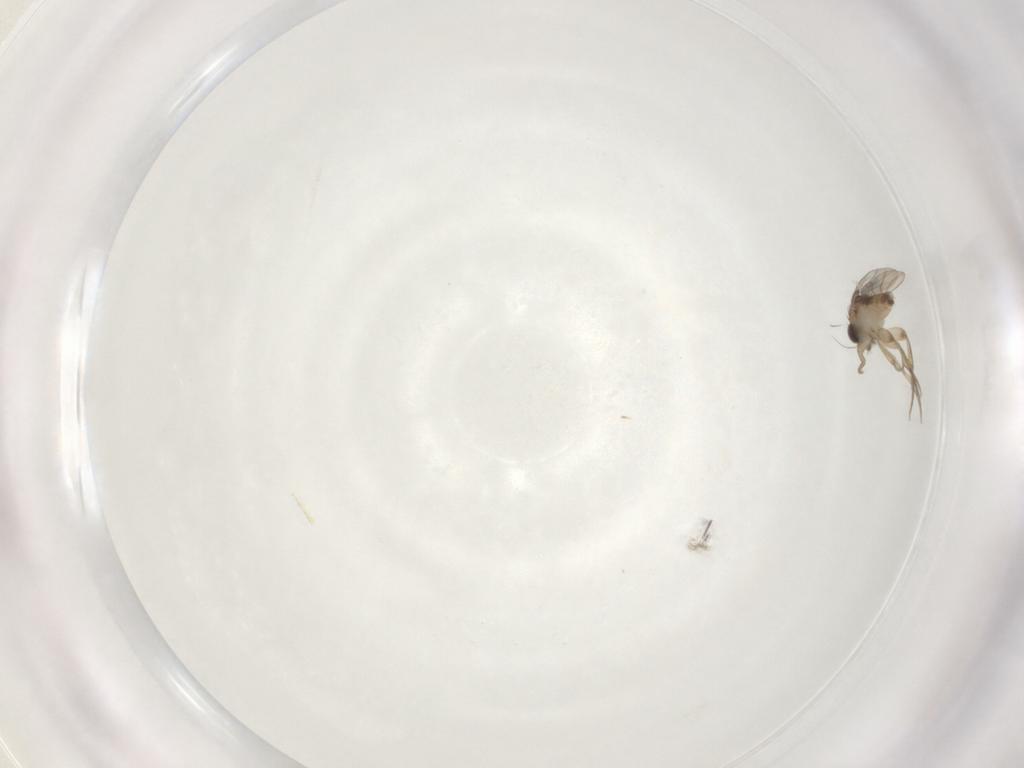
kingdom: Animalia
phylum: Arthropoda
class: Insecta
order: Diptera
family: Phoridae
